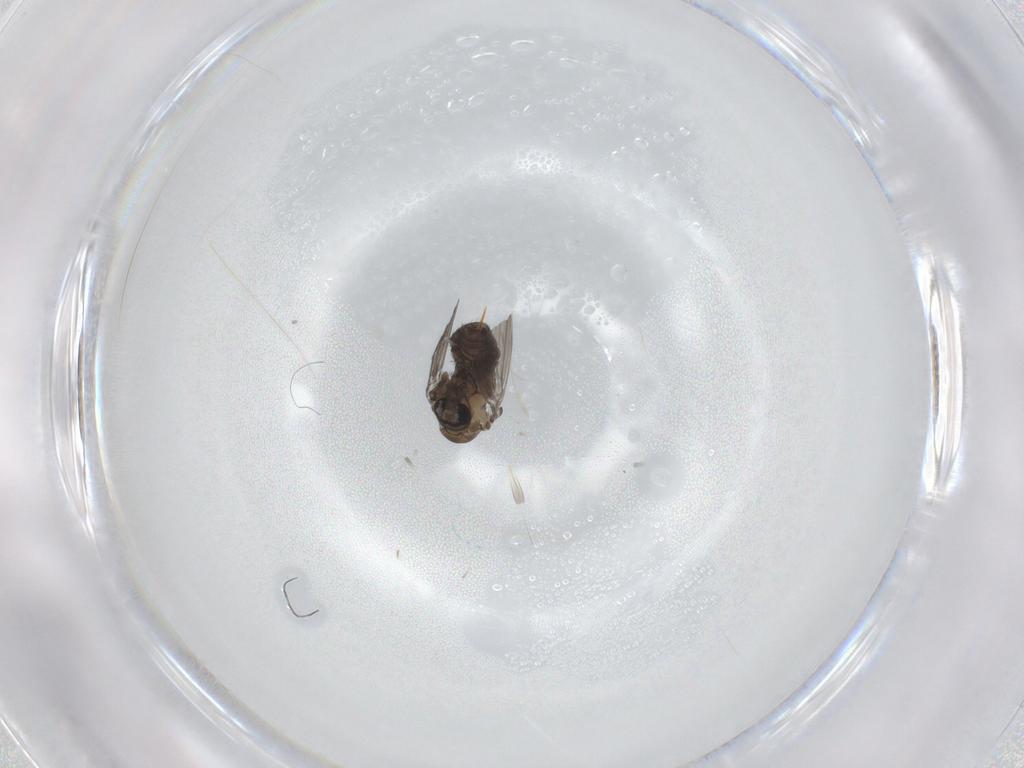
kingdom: Animalia
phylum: Arthropoda
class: Insecta
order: Diptera
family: Psychodidae
